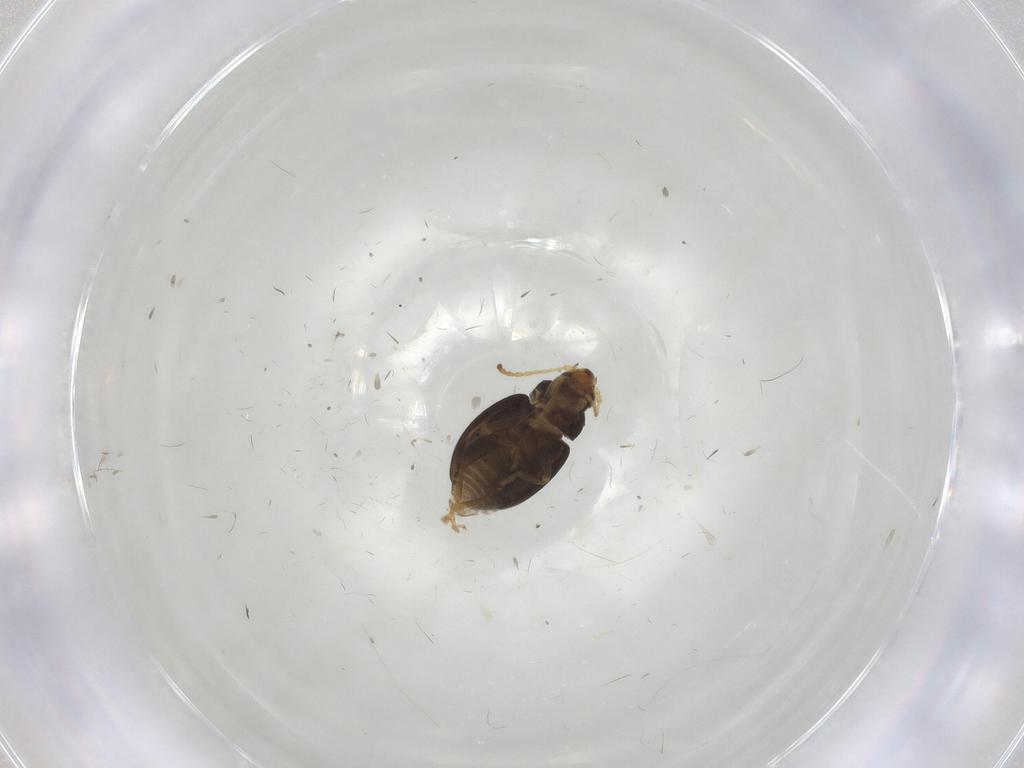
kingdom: Animalia
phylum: Arthropoda
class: Insecta
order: Coleoptera
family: Chrysomelidae
